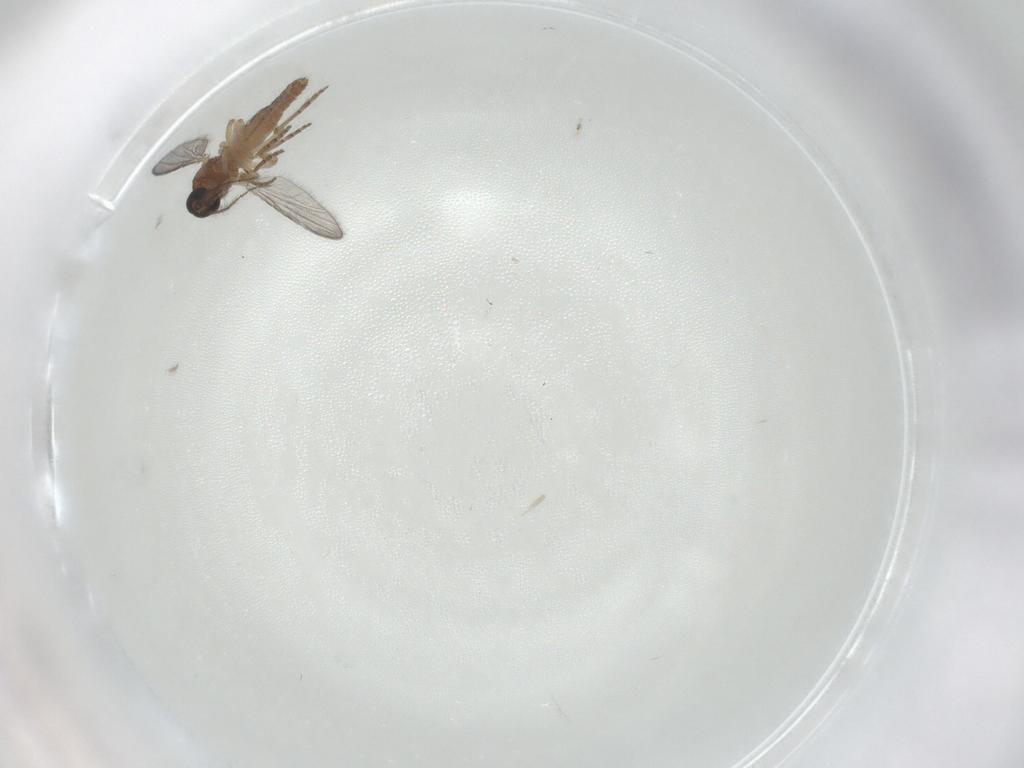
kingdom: Animalia
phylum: Arthropoda
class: Insecta
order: Diptera
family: Ceratopogonidae
